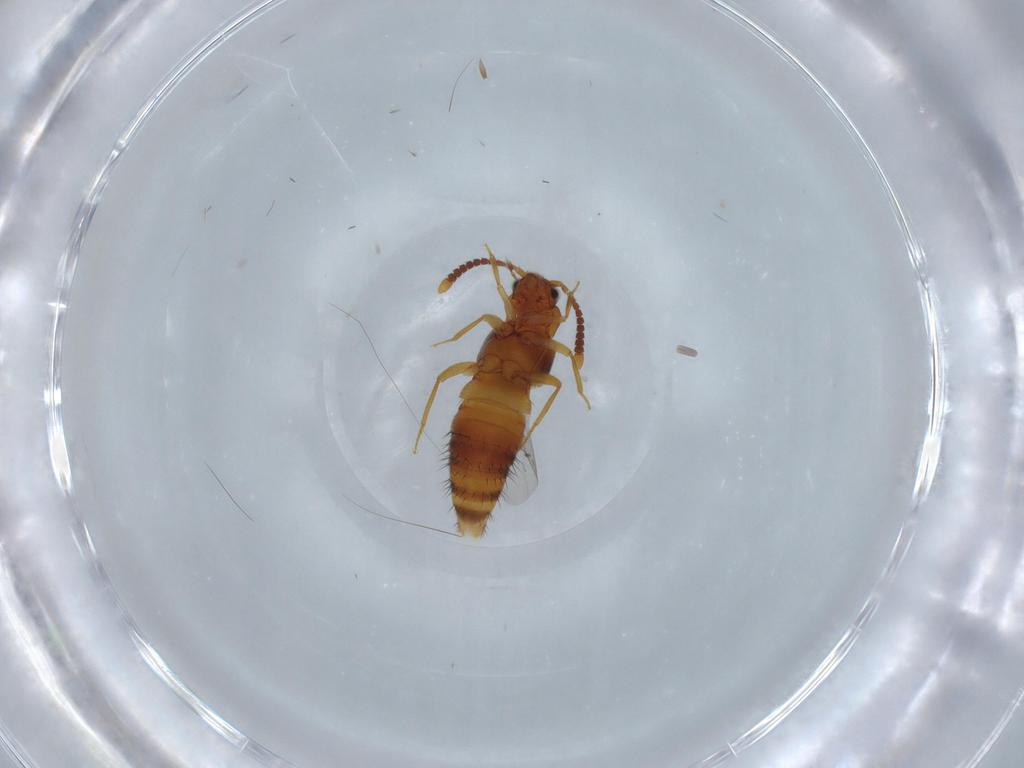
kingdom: Animalia
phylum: Arthropoda
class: Insecta
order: Coleoptera
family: Staphylinidae
